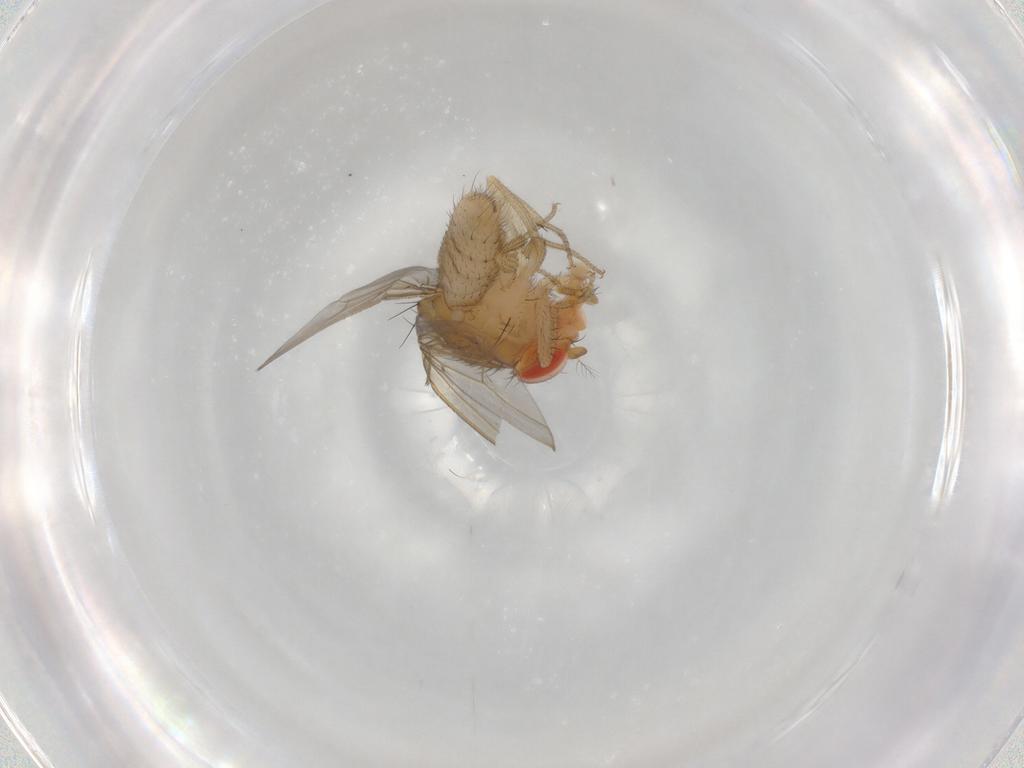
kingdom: Animalia
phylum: Arthropoda
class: Insecta
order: Diptera
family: Drosophilidae
